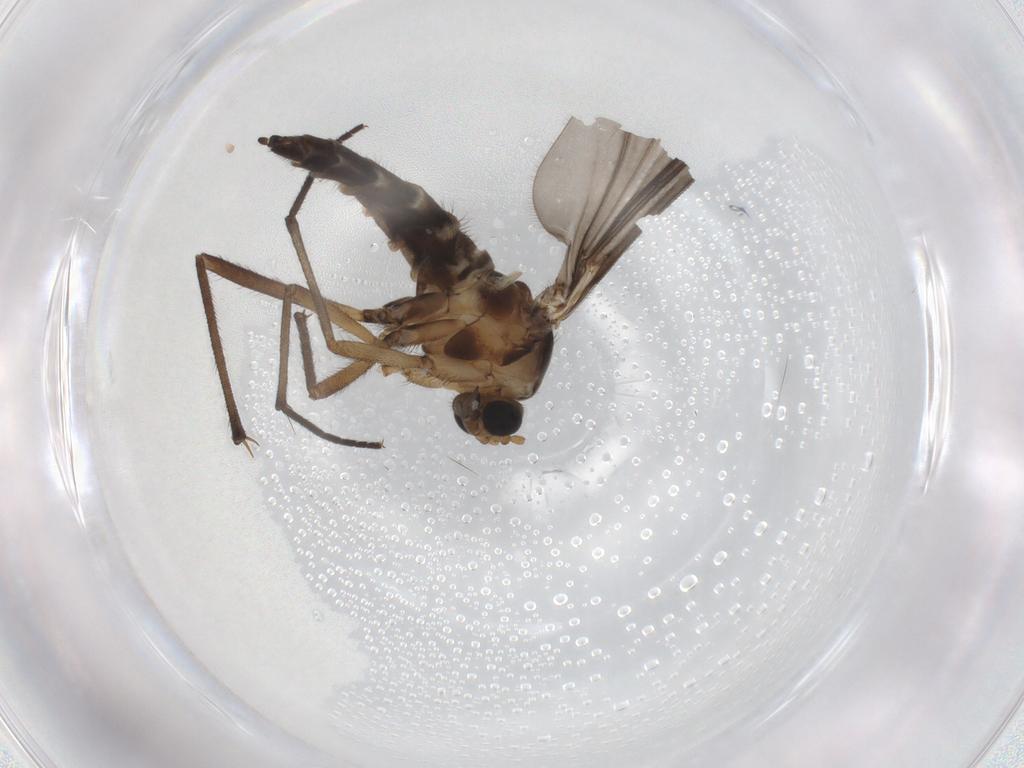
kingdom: Animalia
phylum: Arthropoda
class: Insecta
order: Diptera
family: Sciaridae
